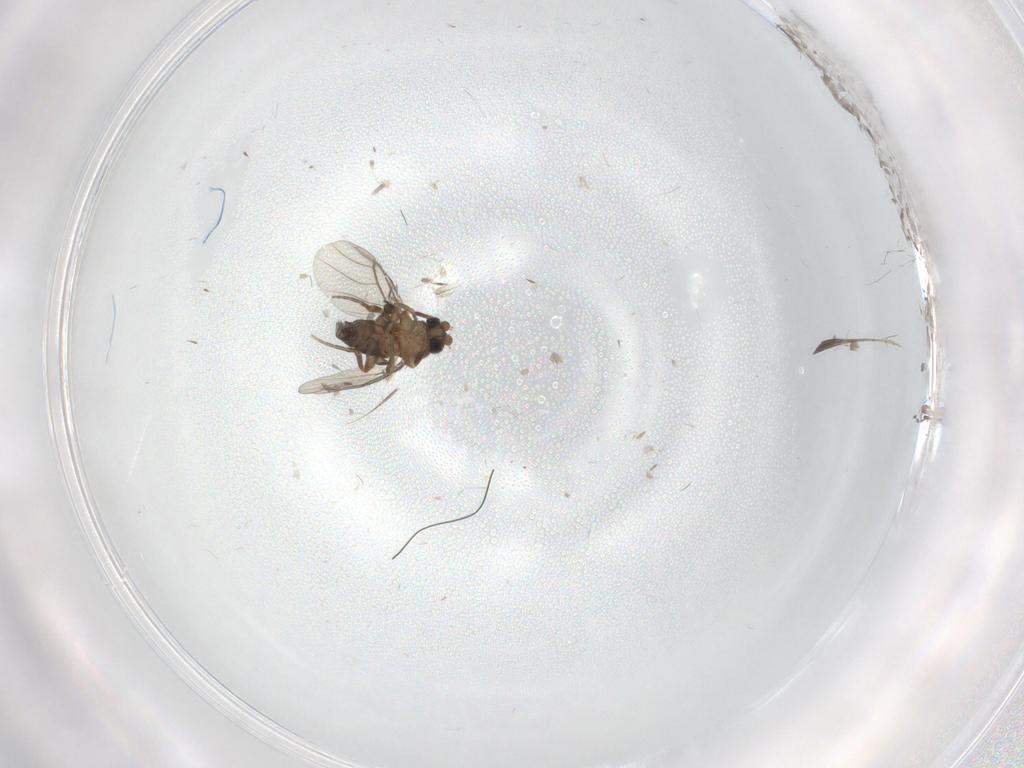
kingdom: Animalia
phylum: Arthropoda
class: Insecta
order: Diptera
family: Phoridae
